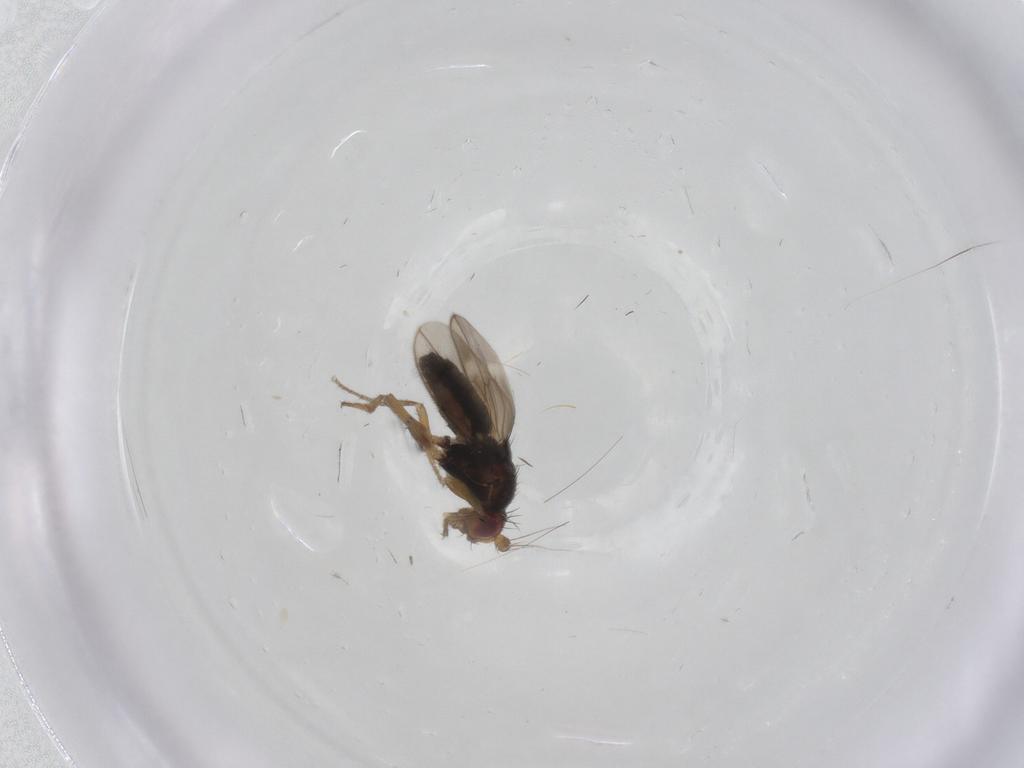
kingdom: Animalia
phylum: Arthropoda
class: Insecta
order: Diptera
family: Sphaeroceridae
